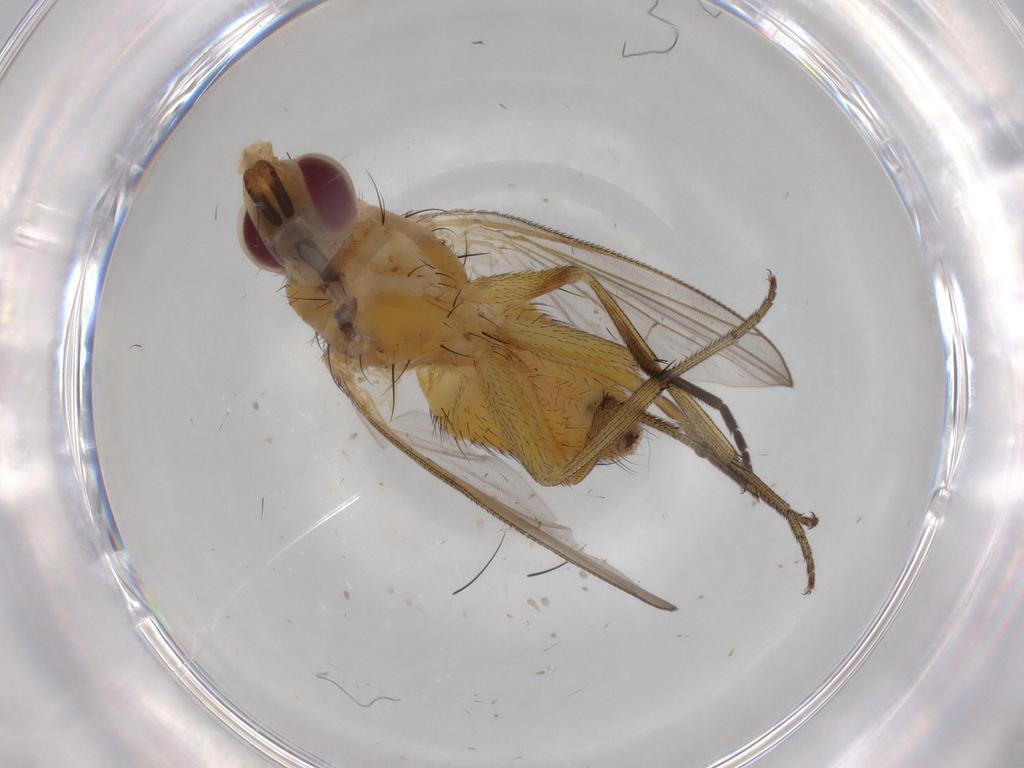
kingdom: Animalia
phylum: Arthropoda
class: Insecta
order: Diptera
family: Muscidae
